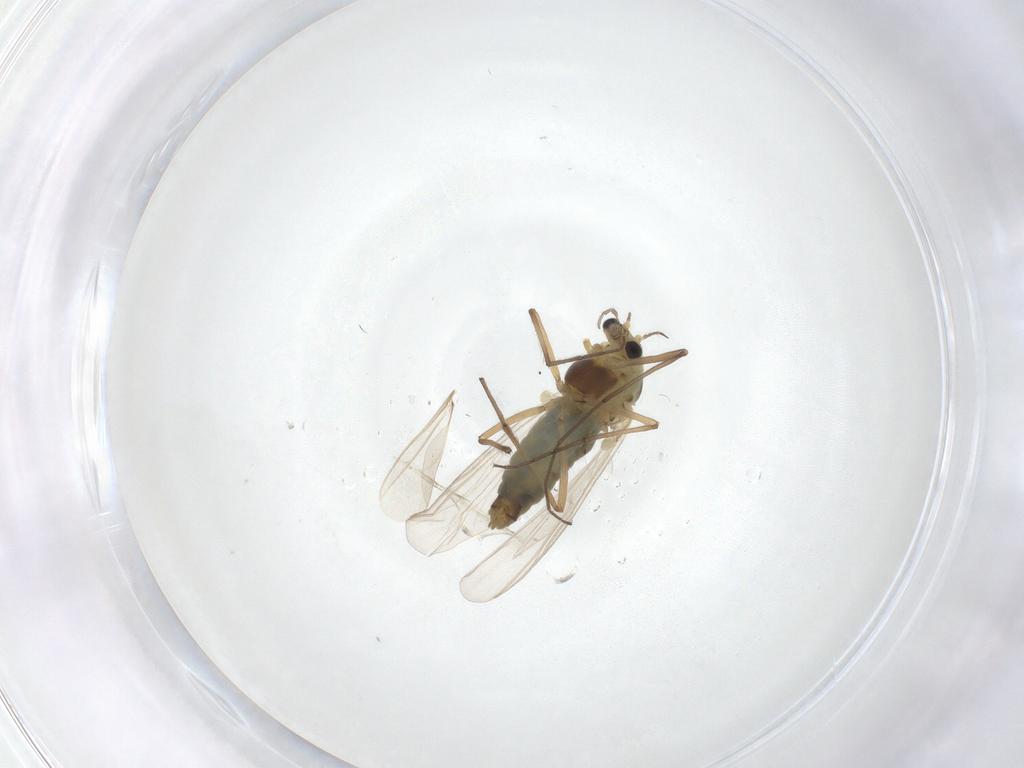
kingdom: Animalia
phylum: Arthropoda
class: Insecta
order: Diptera
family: Chironomidae
